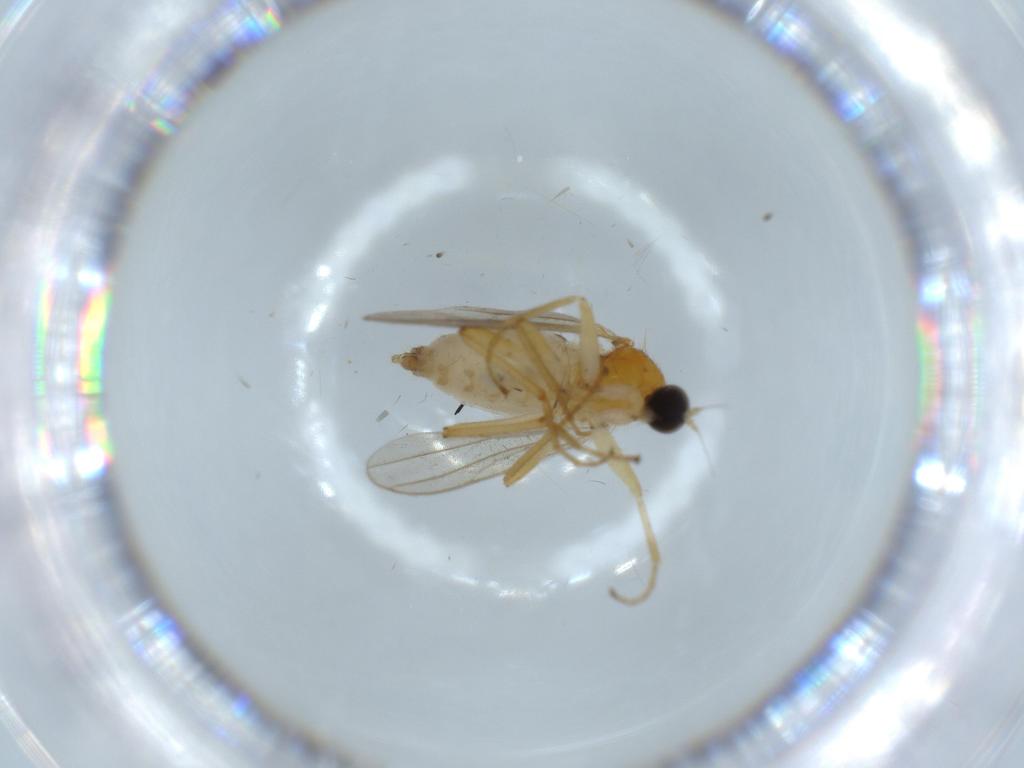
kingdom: Animalia
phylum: Arthropoda
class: Insecta
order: Diptera
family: Hybotidae
